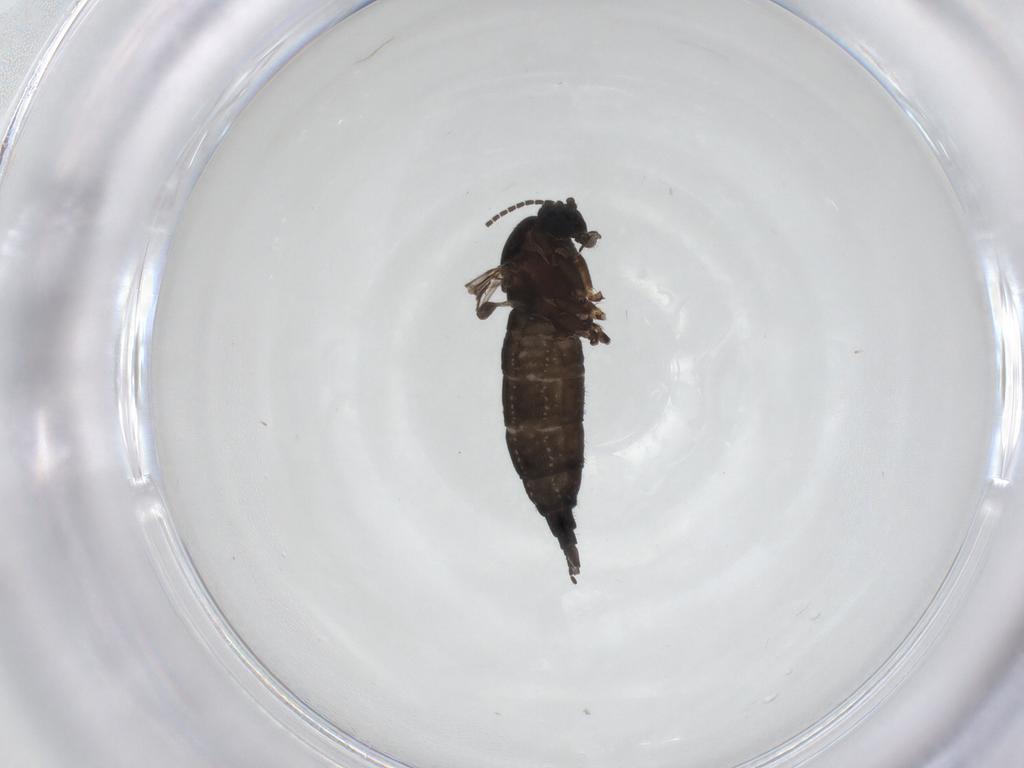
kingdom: Animalia
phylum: Arthropoda
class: Insecta
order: Diptera
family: Sciaridae
